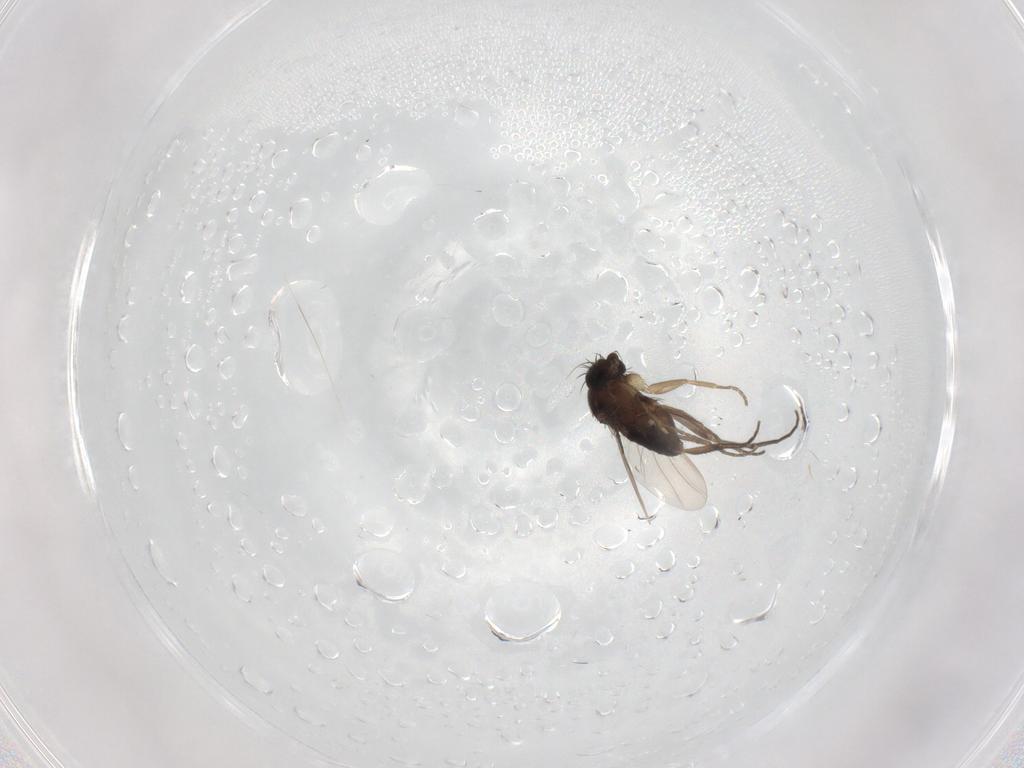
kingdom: Animalia
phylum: Arthropoda
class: Insecta
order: Diptera
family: Phoridae
